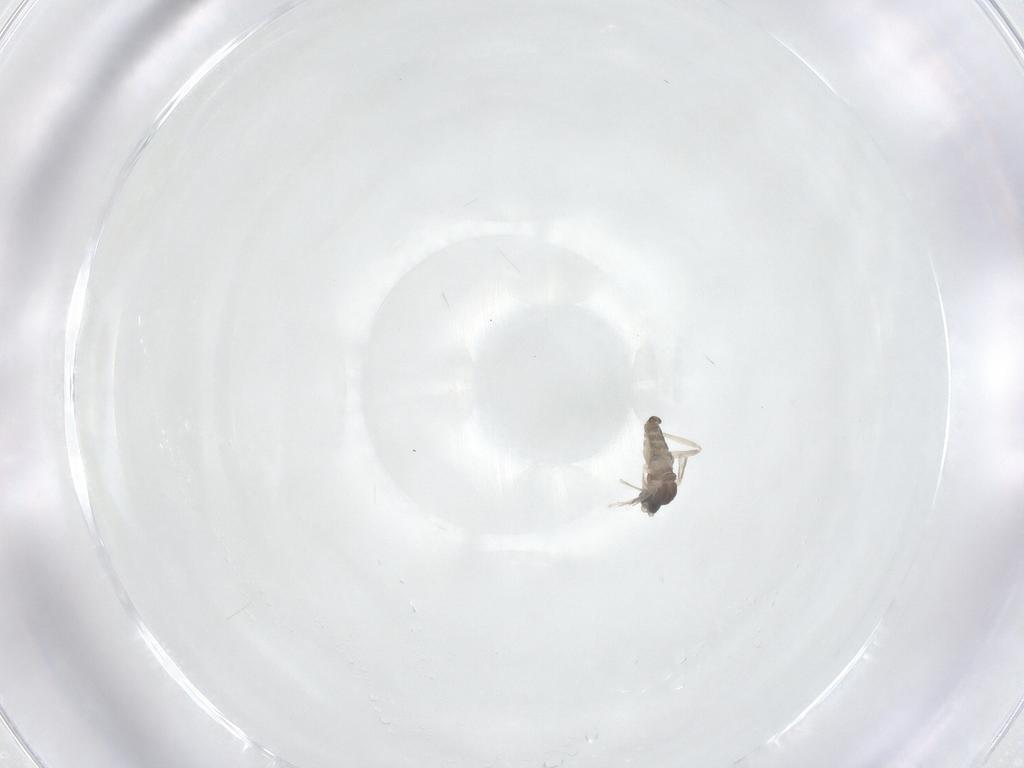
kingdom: Animalia
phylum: Arthropoda
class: Insecta
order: Diptera
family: Cecidomyiidae
